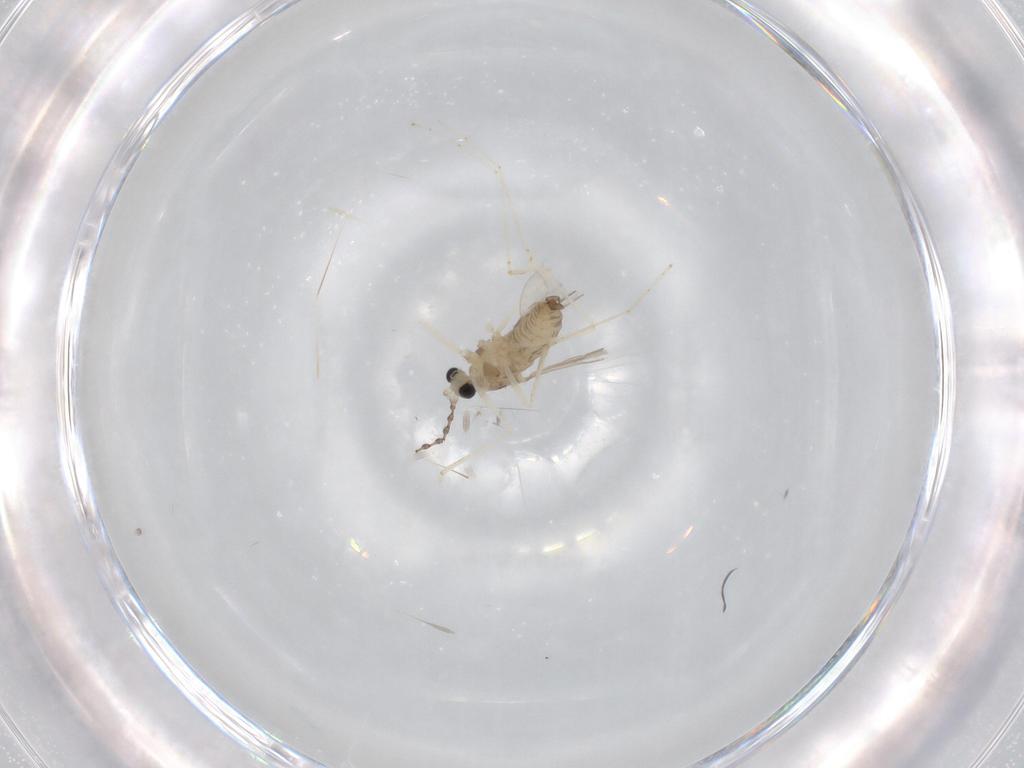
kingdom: Animalia
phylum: Arthropoda
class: Insecta
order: Diptera
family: Cecidomyiidae
